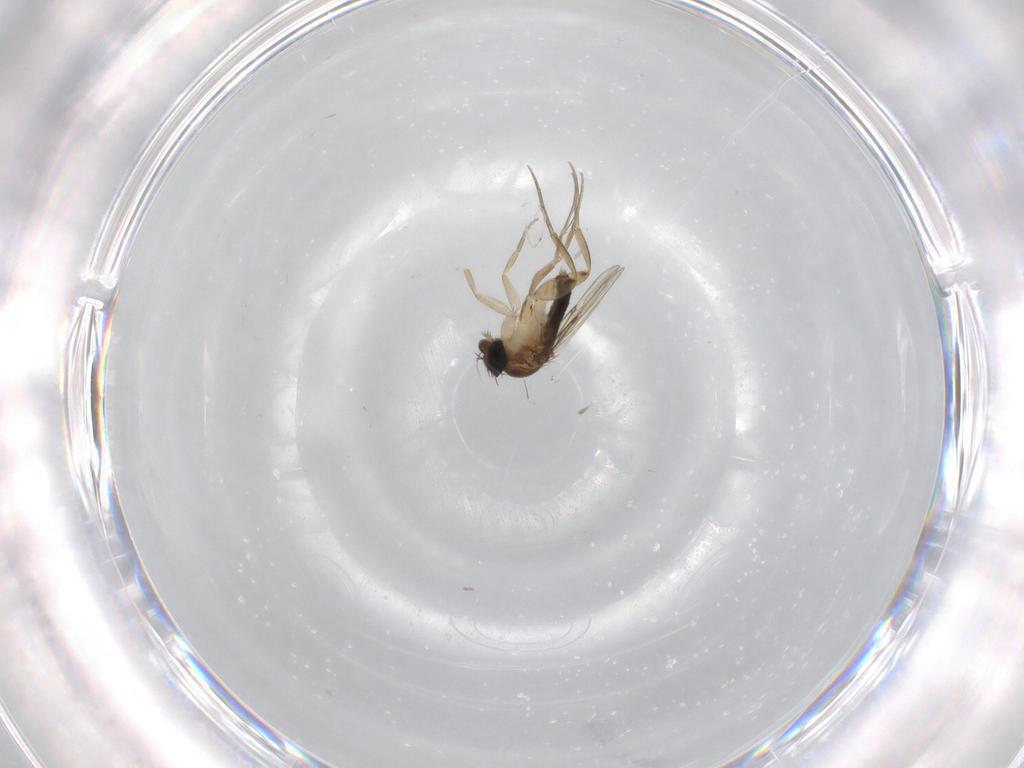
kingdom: Animalia
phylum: Arthropoda
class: Insecta
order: Diptera
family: Phoridae
